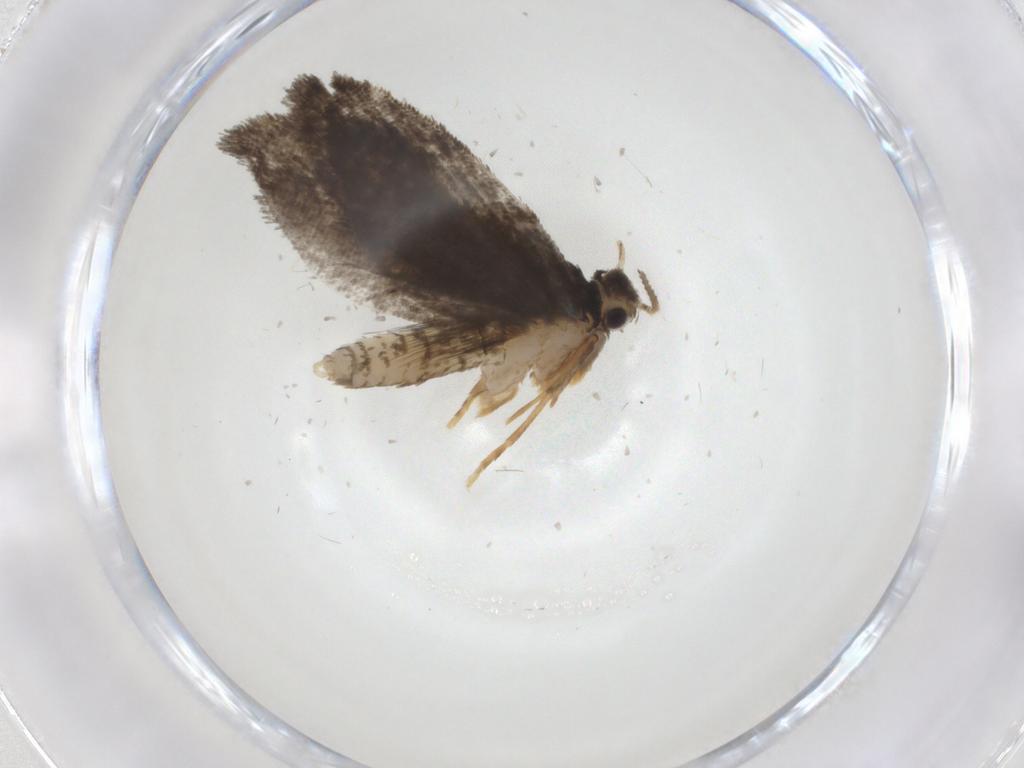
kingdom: Animalia
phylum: Arthropoda
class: Insecta
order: Lepidoptera
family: Psychidae
